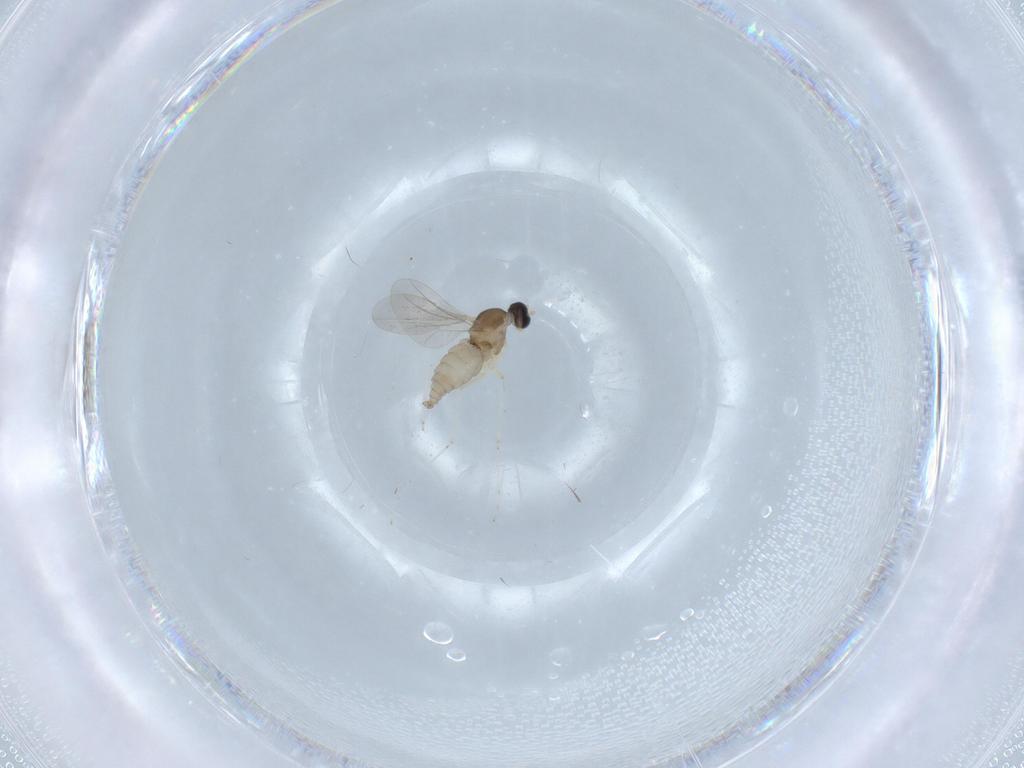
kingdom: Animalia
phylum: Arthropoda
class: Insecta
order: Diptera
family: Cecidomyiidae
